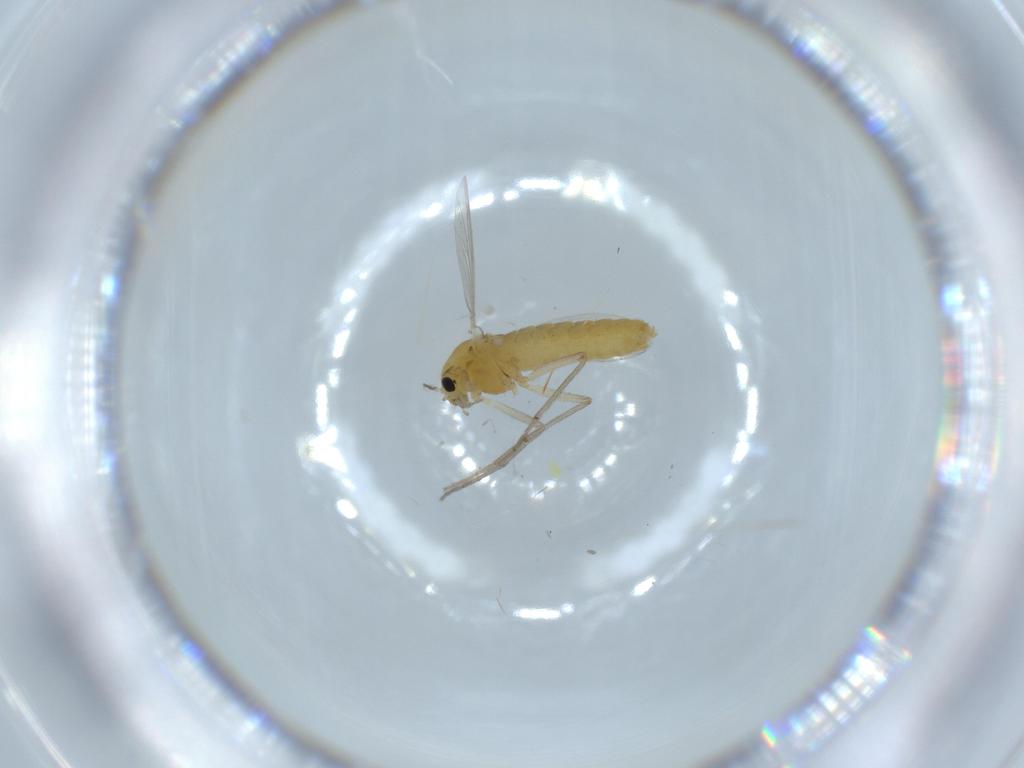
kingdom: Animalia
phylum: Arthropoda
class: Insecta
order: Diptera
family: Chironomidae
